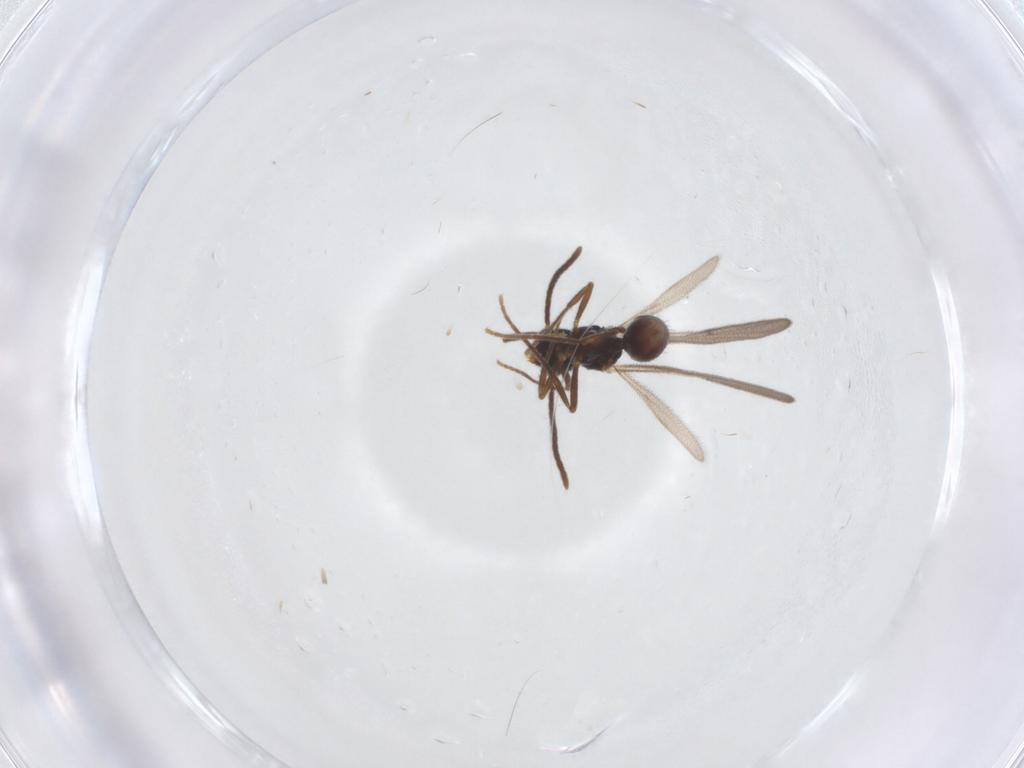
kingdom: Animalia
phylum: Arthropoda
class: Insecta
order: Hymenoptera
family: Formicidae
